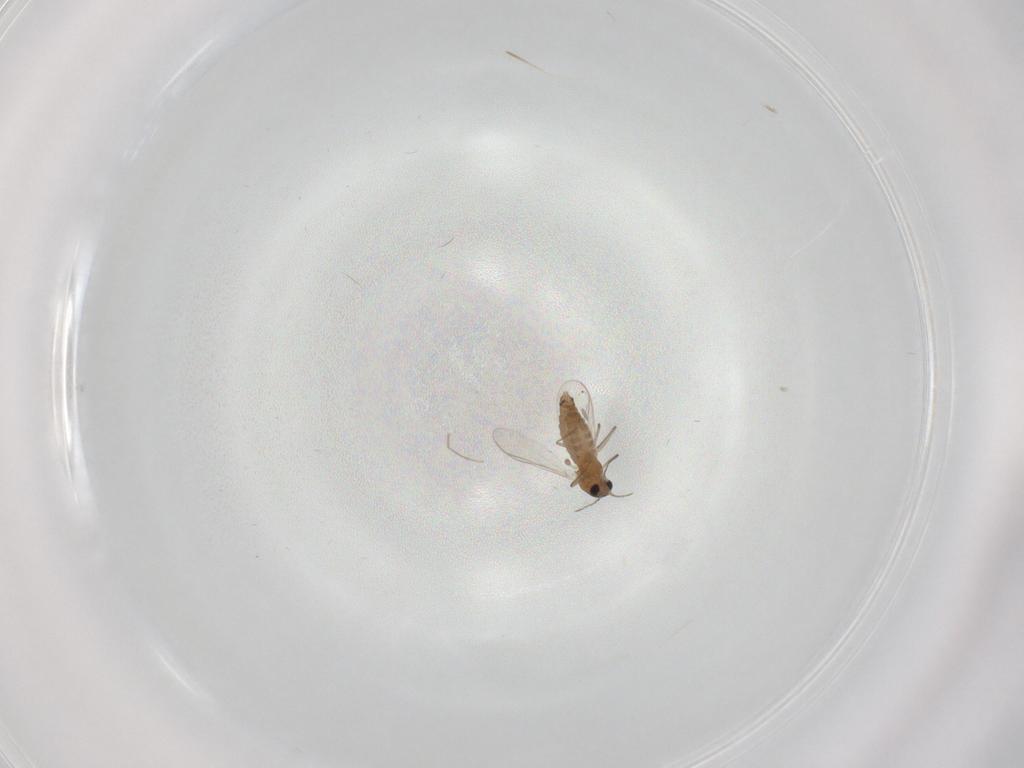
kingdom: Animalia
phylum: Arthropoda
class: Insecta
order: Diptera
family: Chironomidae
